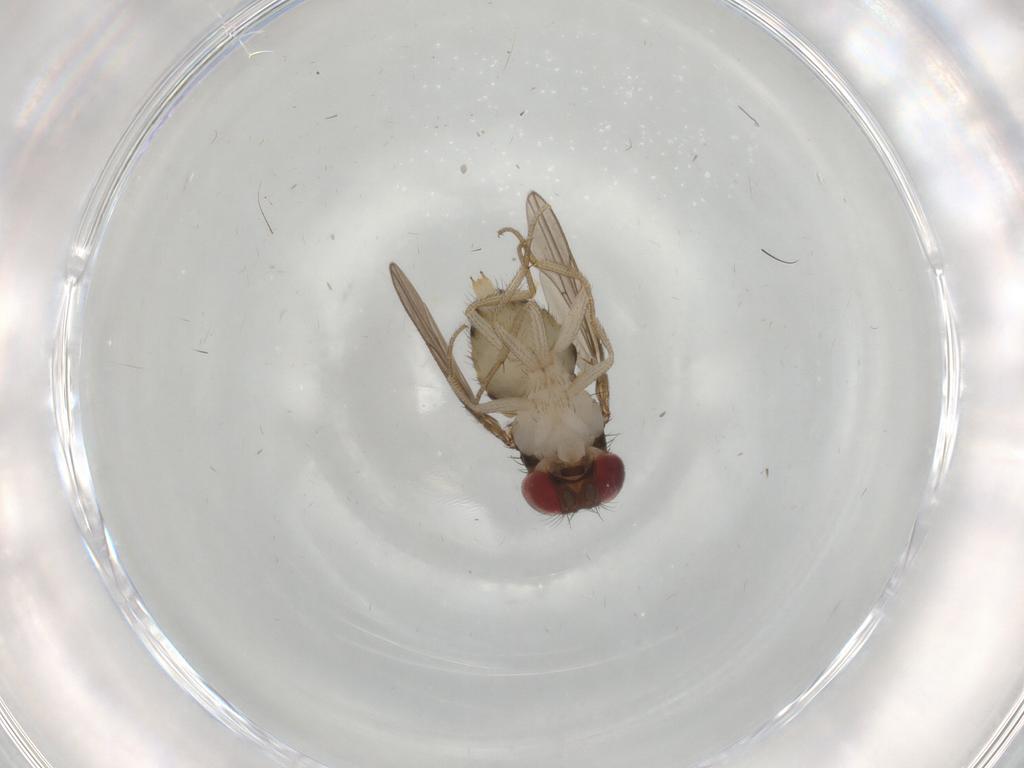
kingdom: Animalia
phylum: Arthropoda
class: Insecta
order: Diptera
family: Drosophilidae
